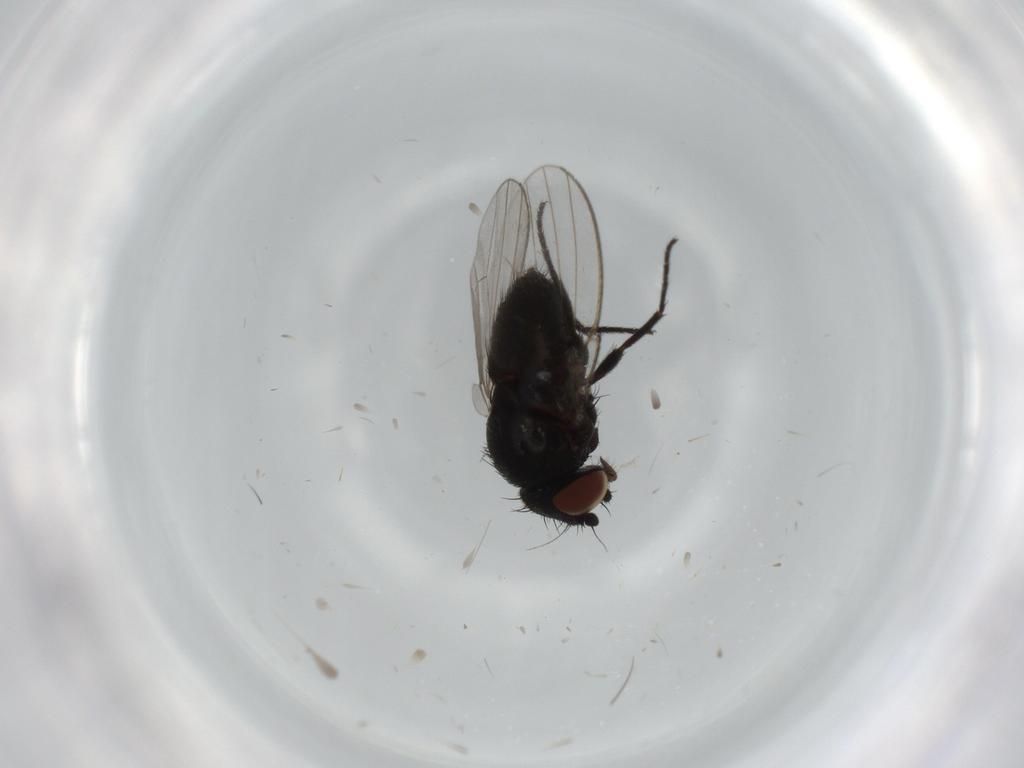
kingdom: Animalia
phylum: Arthropoda
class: Insecta
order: Diptera
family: Milichiidae
